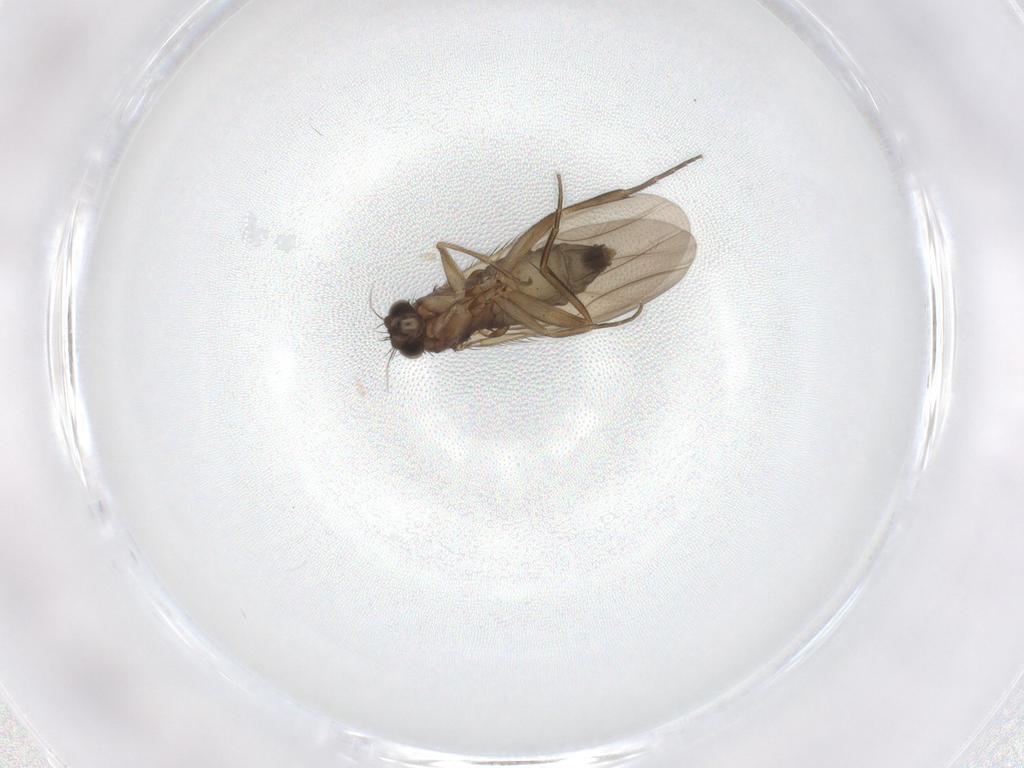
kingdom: Animalia
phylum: Arthropoda
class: Insecta
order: Diptera
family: Phoridae
